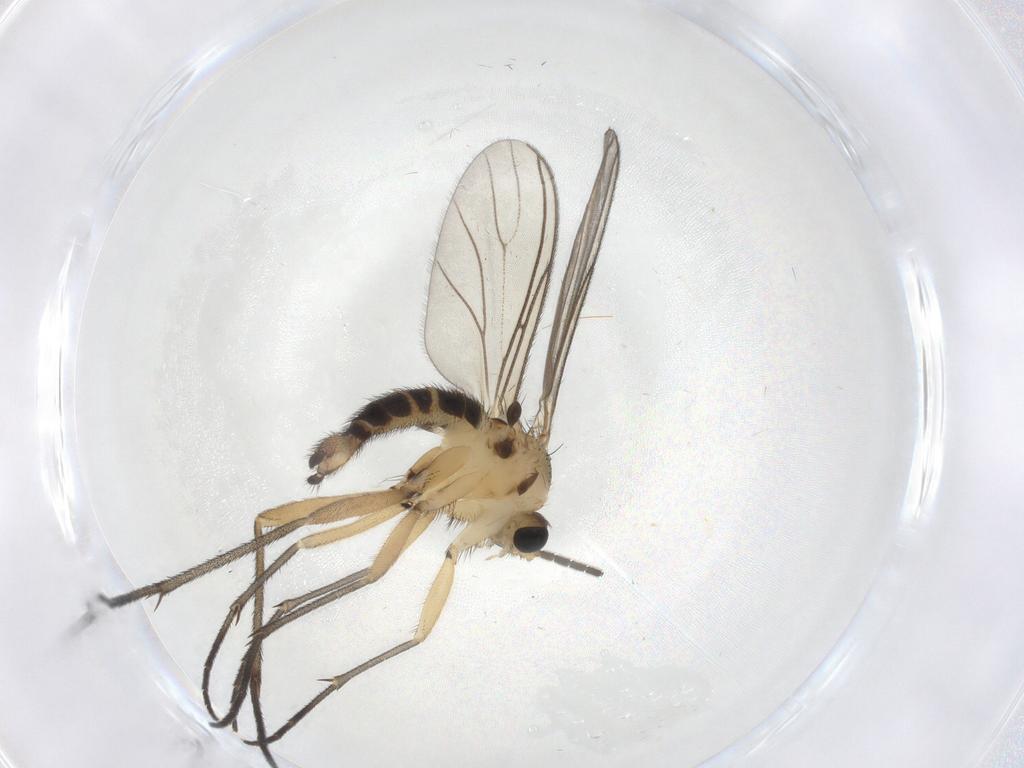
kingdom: Animalia
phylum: Arthropoda
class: Insecta
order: Diptera
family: Sciaridae
